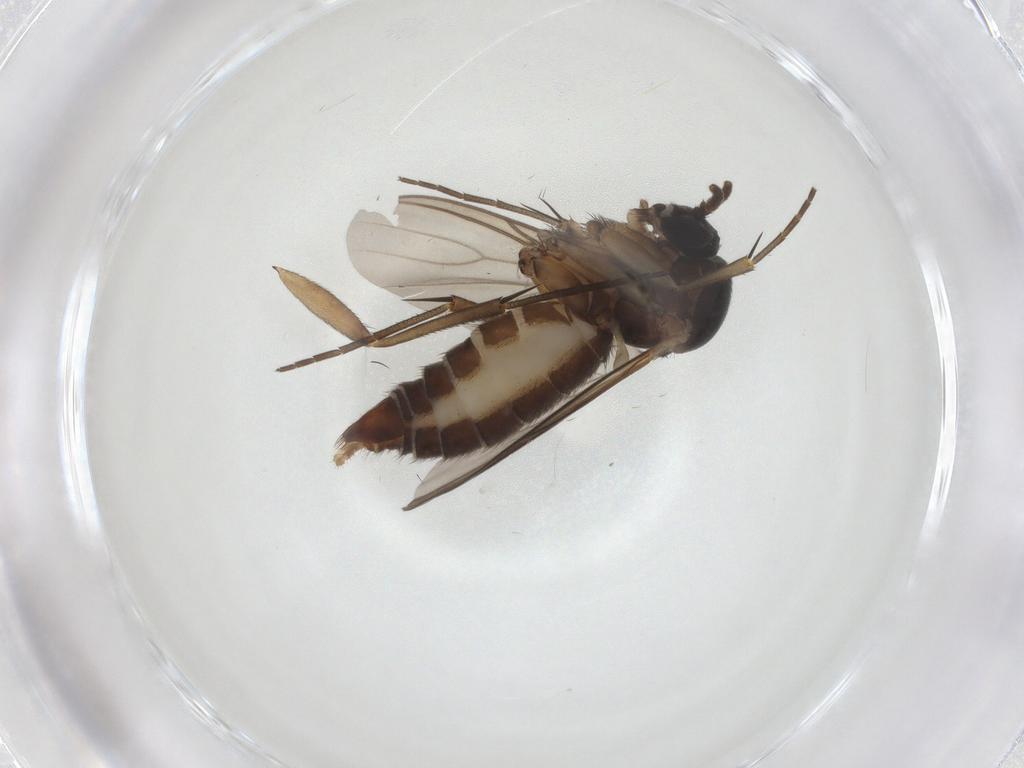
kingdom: Animalia
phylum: Arthropoda
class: Insecta
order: Diptera
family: Mycetophilidae
